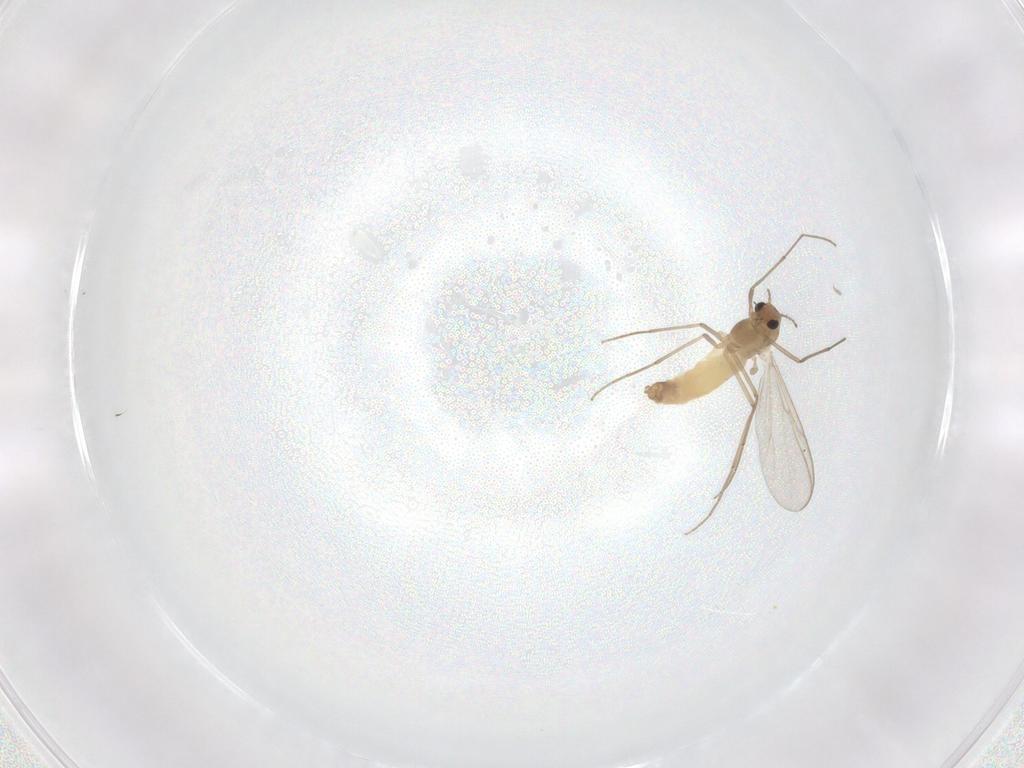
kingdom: Animalia
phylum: Arthropoda
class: Insecta
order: Diptera
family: Chironomidae
